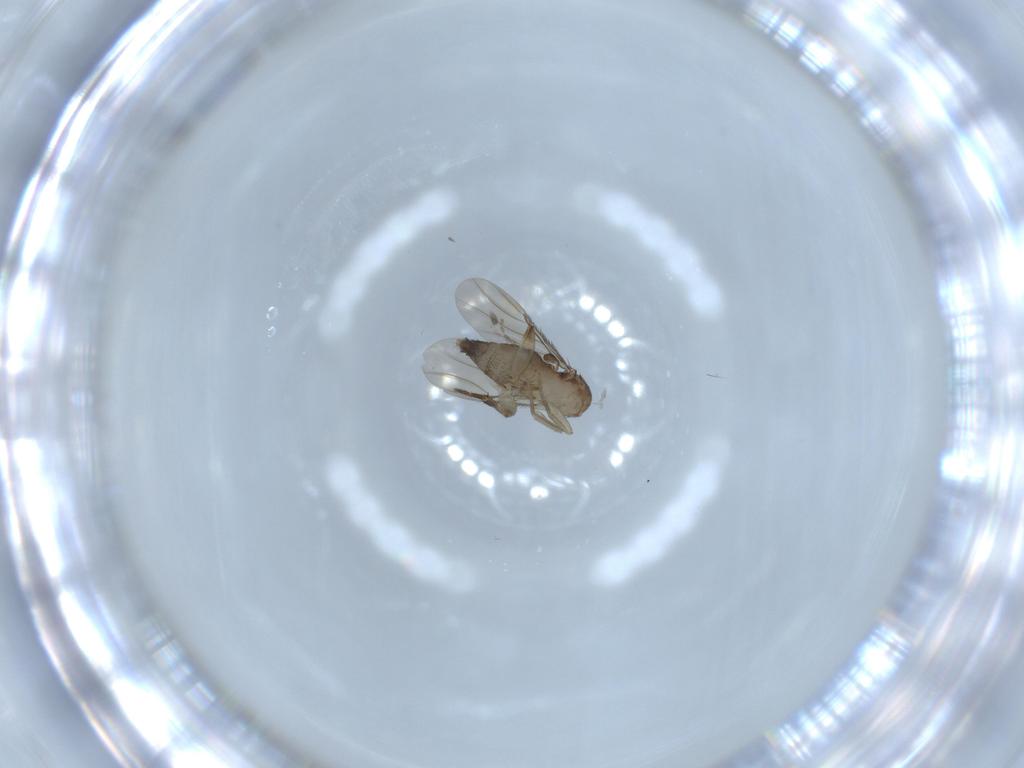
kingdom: Animalia
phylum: Arthropoda
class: Insecta
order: Diptera
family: Phoridae
